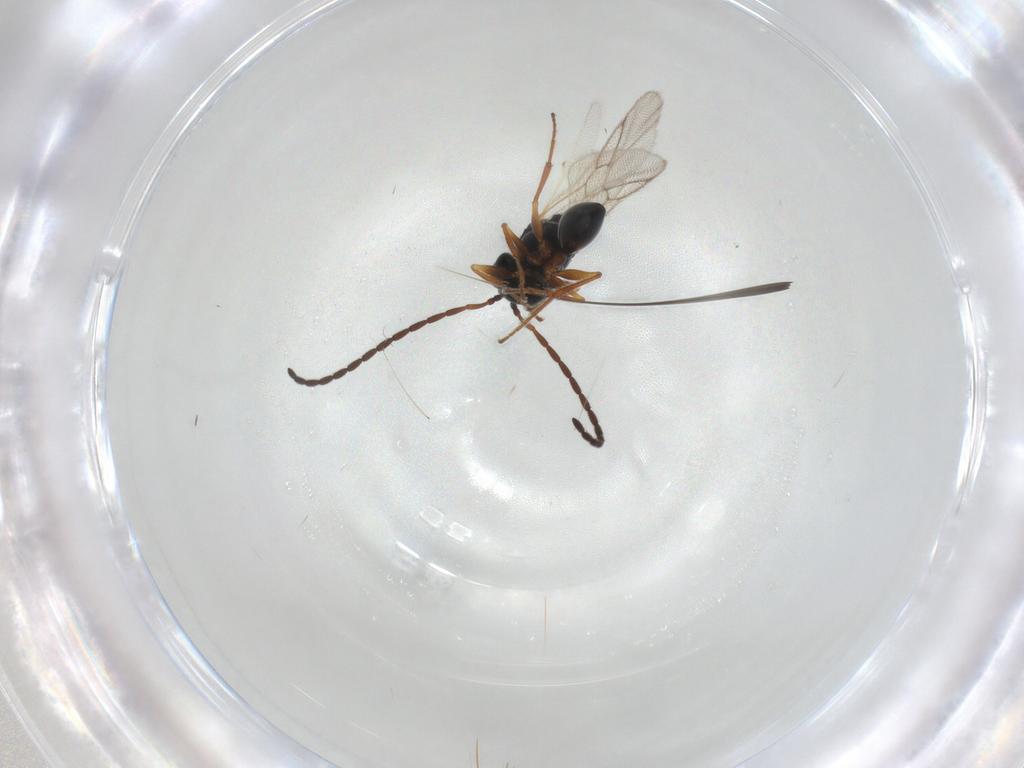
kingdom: Animalia
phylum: Arthropoda
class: Insecta
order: Hymenoptera
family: Figitidae
